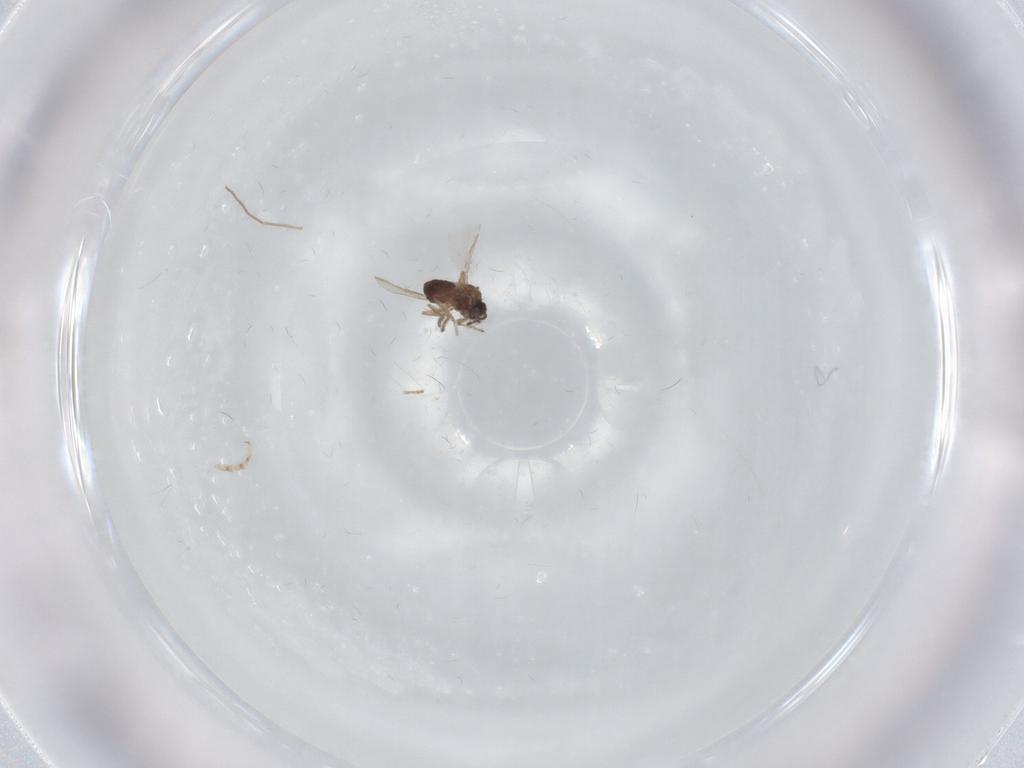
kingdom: Animalia
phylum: Arthropoda
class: Insecta
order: Diptera
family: Ceratopogonidae
